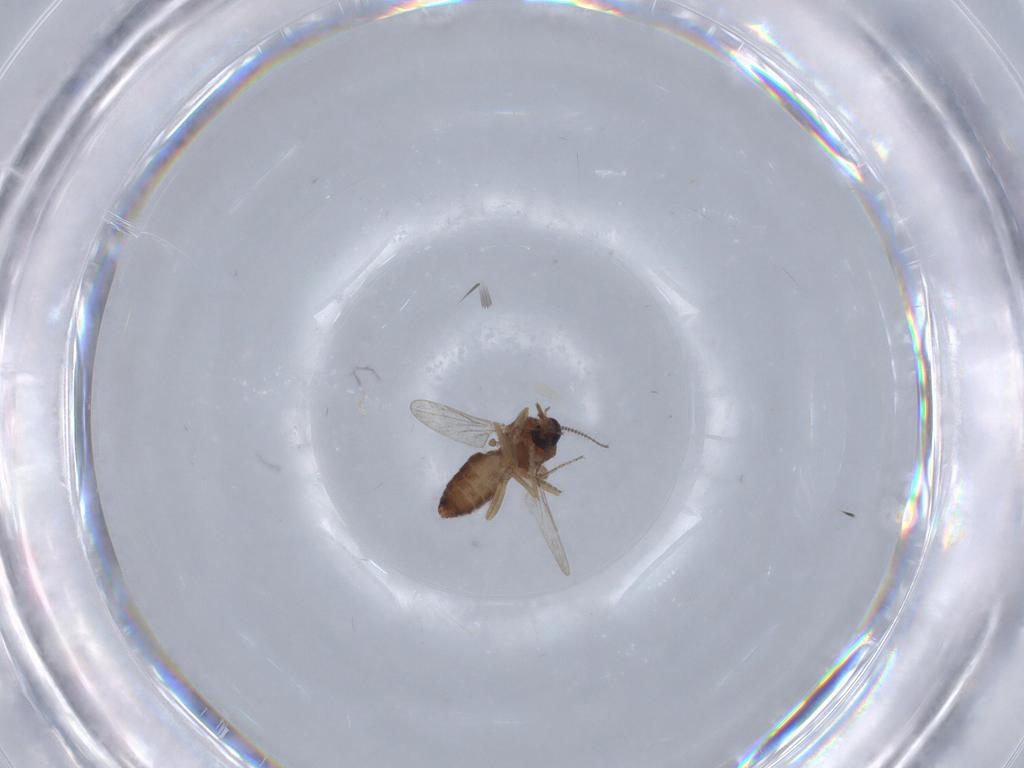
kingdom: Animalia
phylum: Arthropoda
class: Insecta
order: Diptera
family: Ceratopogonidae
